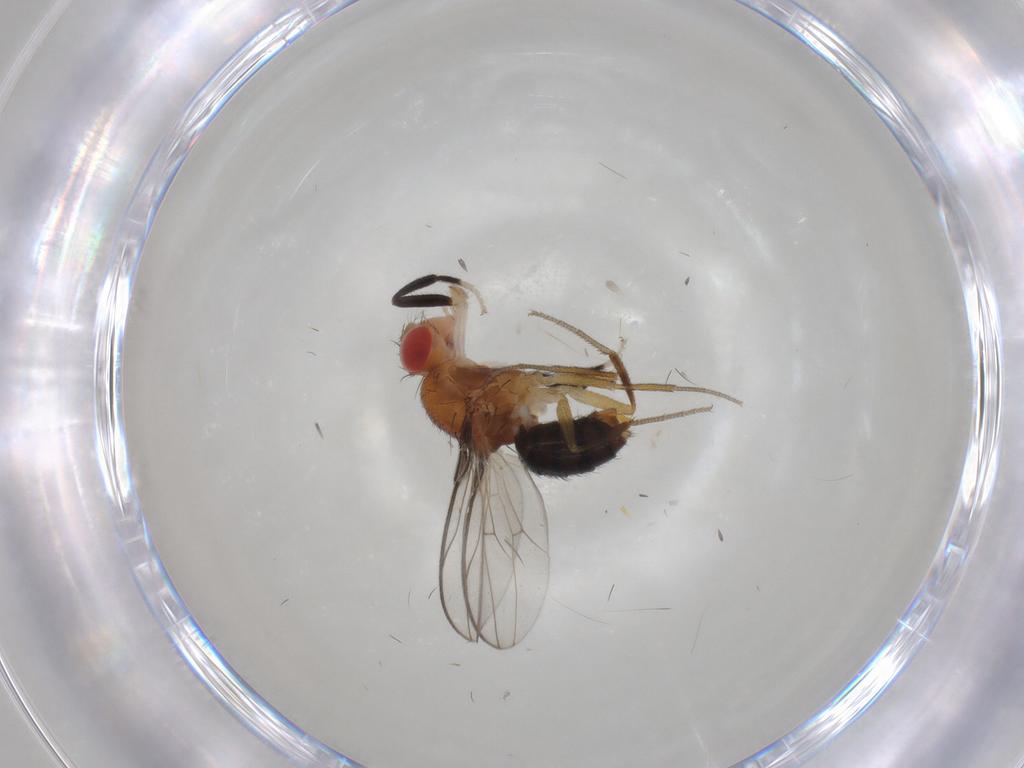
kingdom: Animalia
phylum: Arthropoda
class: Insecta
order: Diptera
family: Drosophilidae
